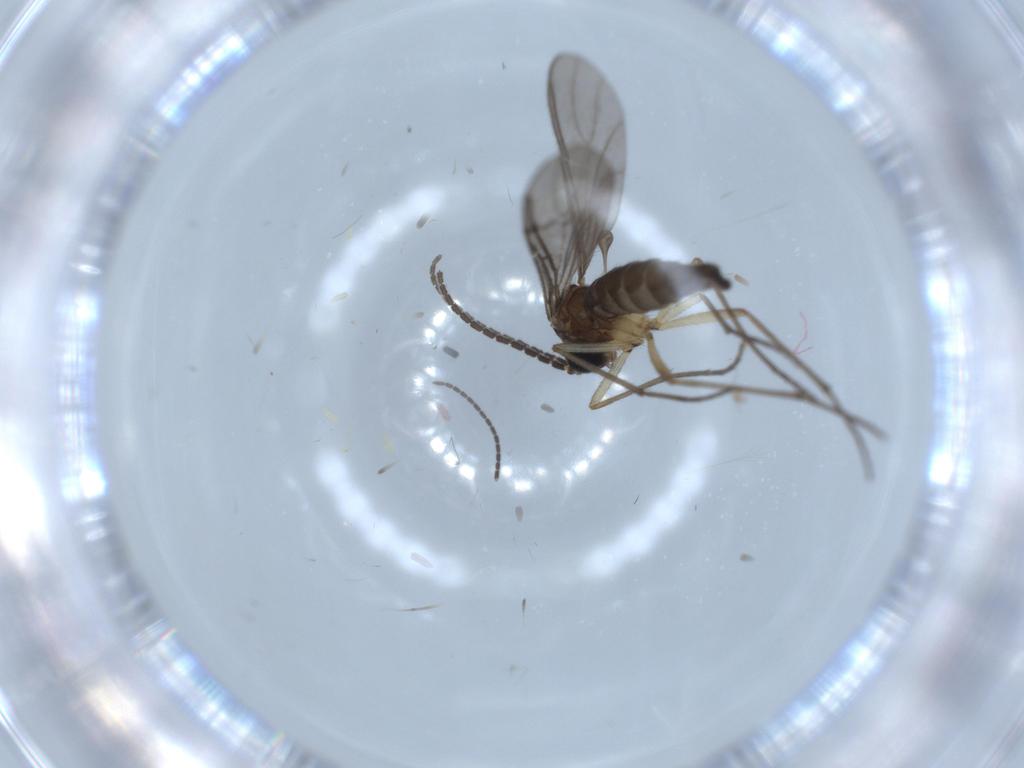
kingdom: Animalia
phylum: Arthropoda
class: Insecta
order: Diptera
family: Sciaridae
